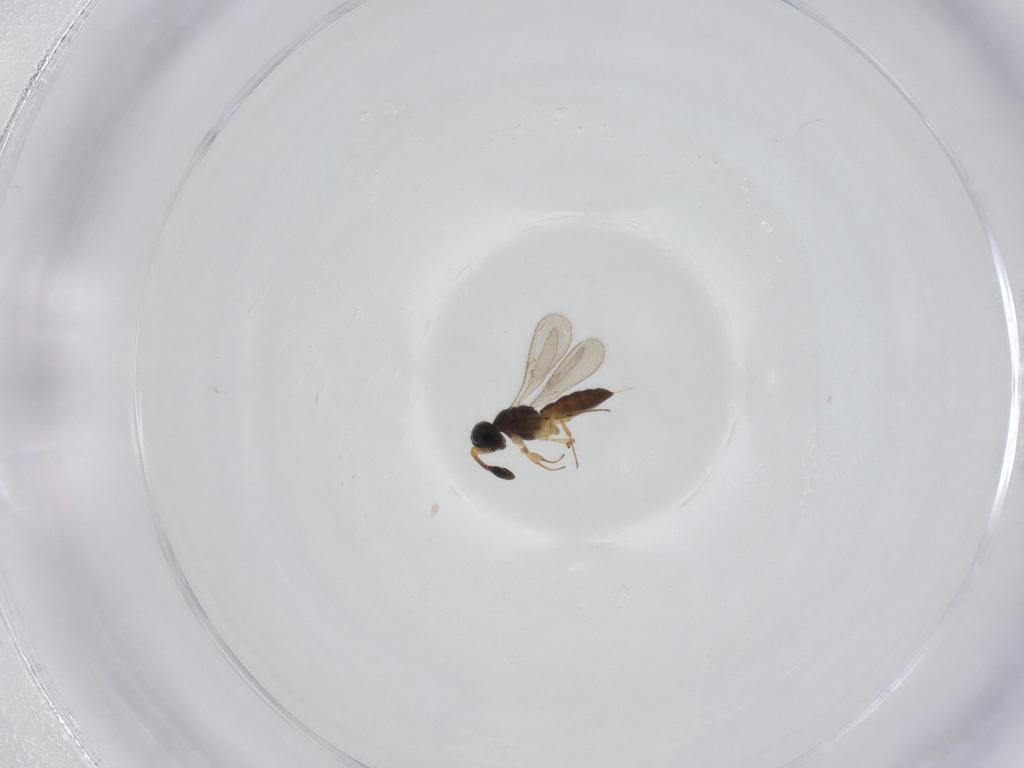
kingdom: Animalia
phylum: Arthropoda
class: Insecta
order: Hymenoptera
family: Scelionidae
